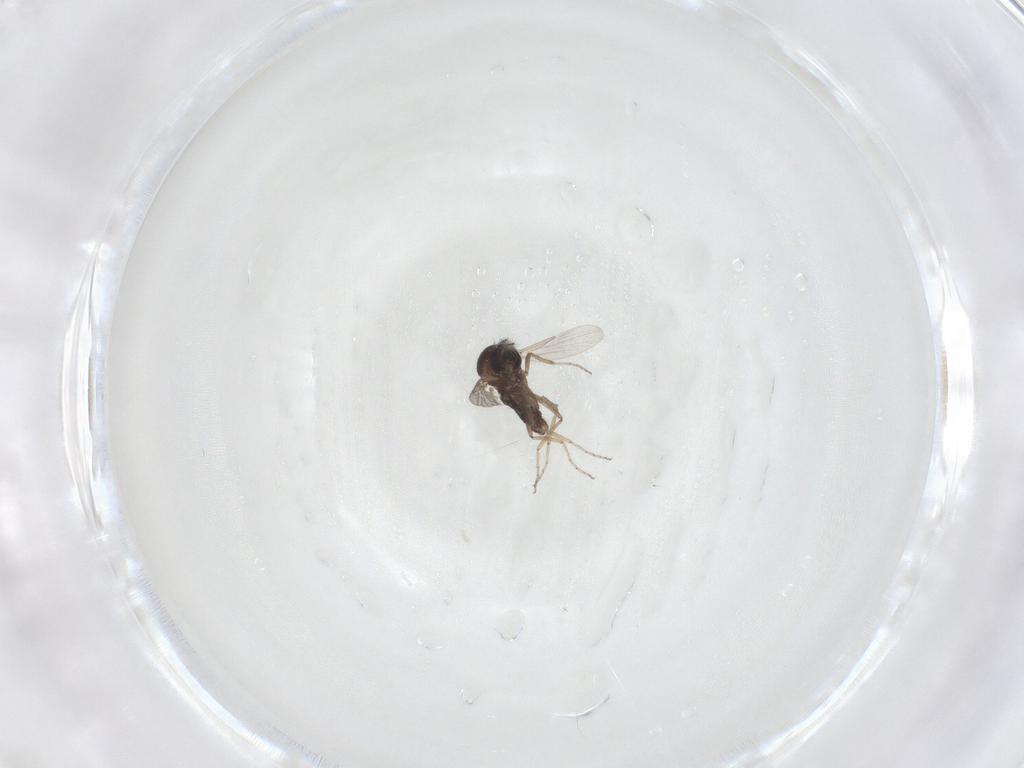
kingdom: Animalia
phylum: Arthropoda
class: Insecta
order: Diptera
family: Ceratopogonidae
